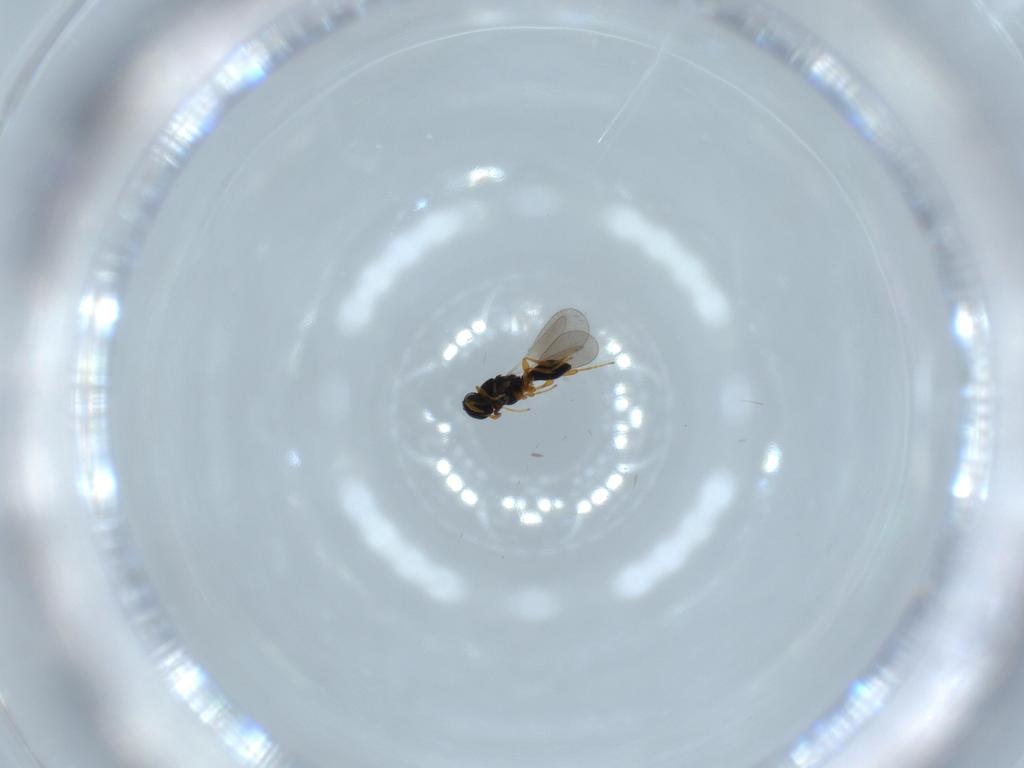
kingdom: Animalia
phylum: Arthropoda
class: Insecta
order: Hymenoptera
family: Platygastridae
